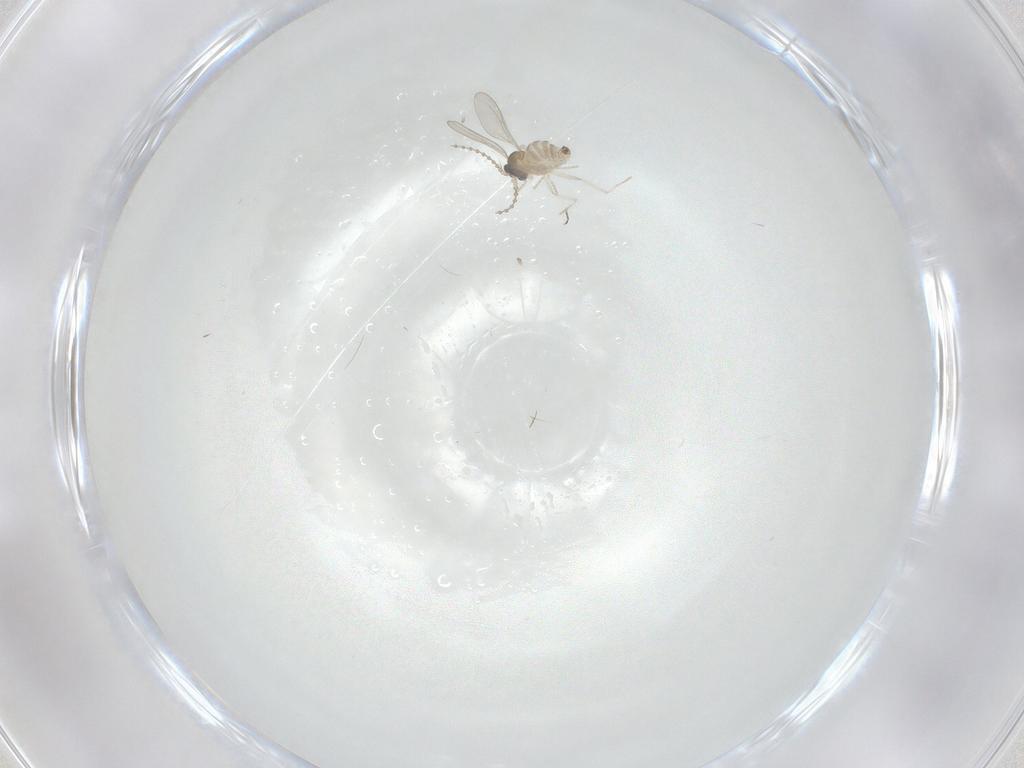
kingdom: Animalia
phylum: Arthropoda
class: Insecta
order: Diptera
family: Cecidomyiidae
